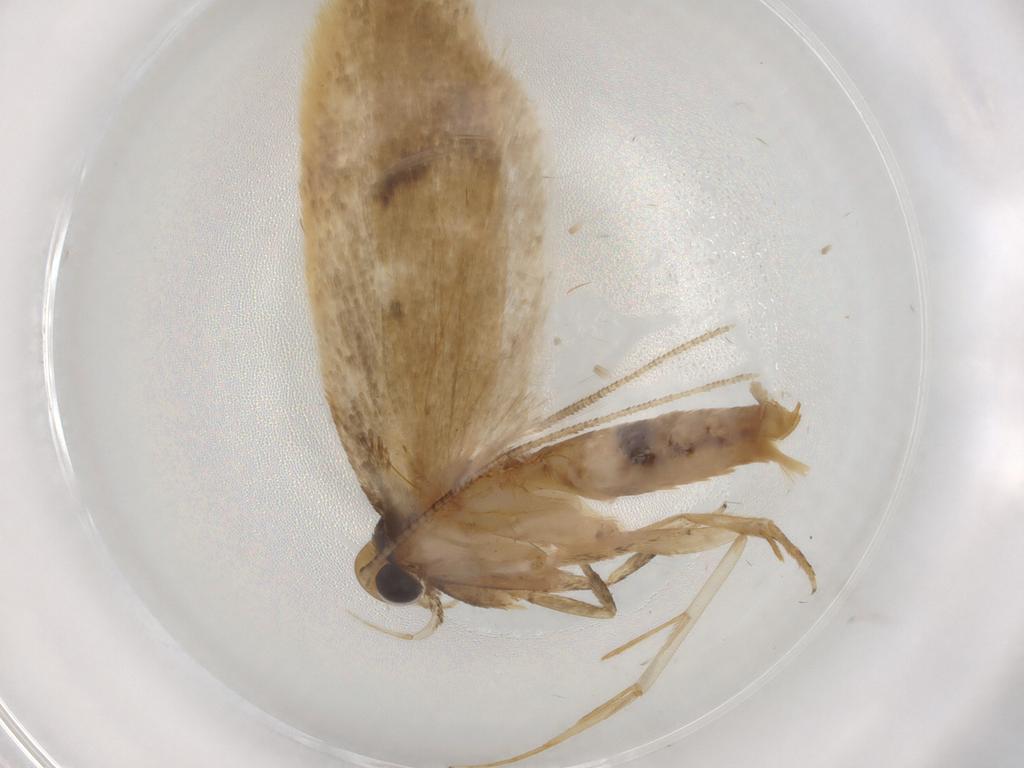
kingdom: Animalia
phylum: Arthropoda
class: Insecta
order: Lepidoptera
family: Depressariidae
